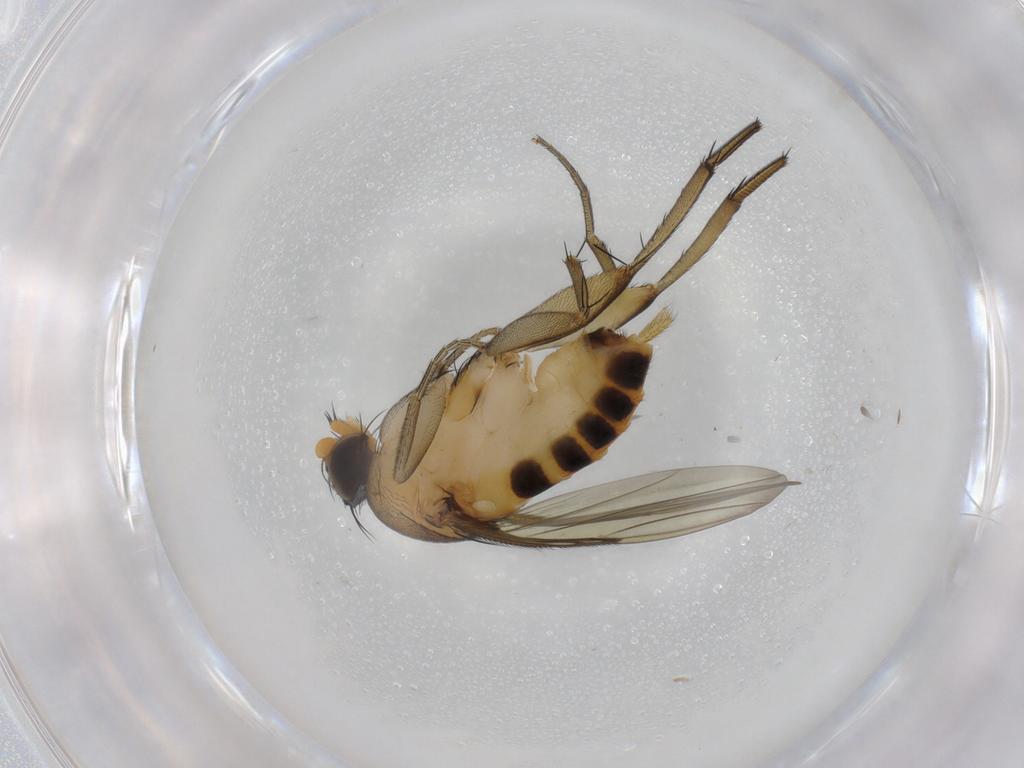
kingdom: Animalia
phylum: Arthropoda
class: Insecta
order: Diptera
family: Phoridae
